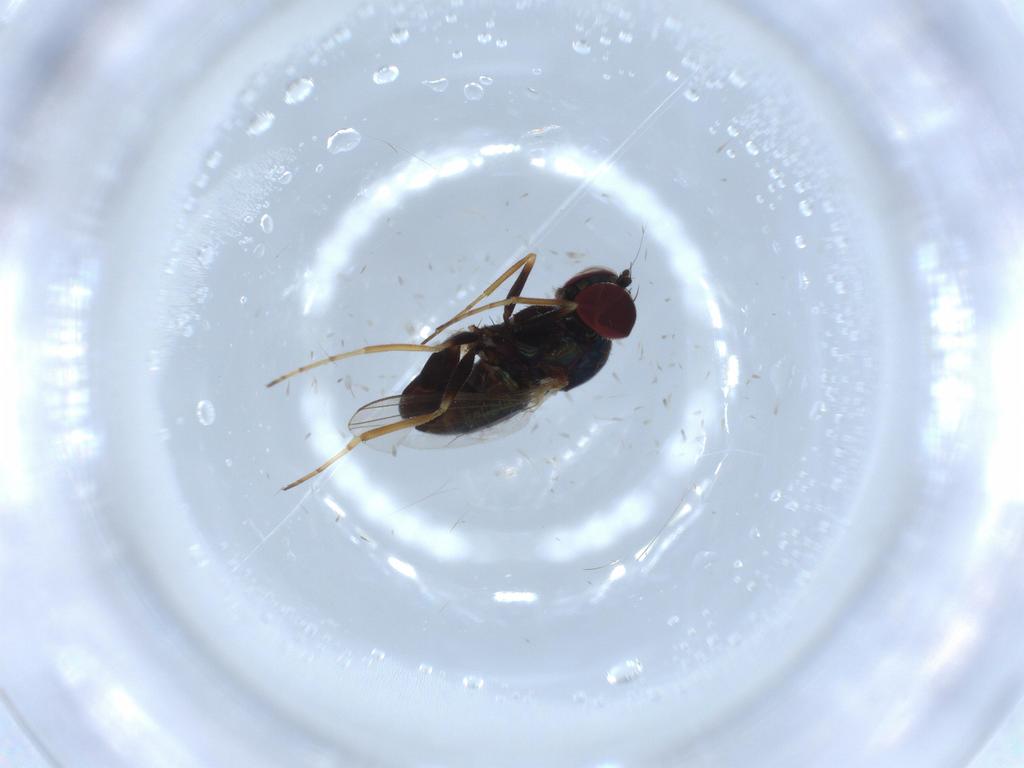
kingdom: Animalia
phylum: Arthropoda
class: Insecta
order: Diptera
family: Dolichopodidae
